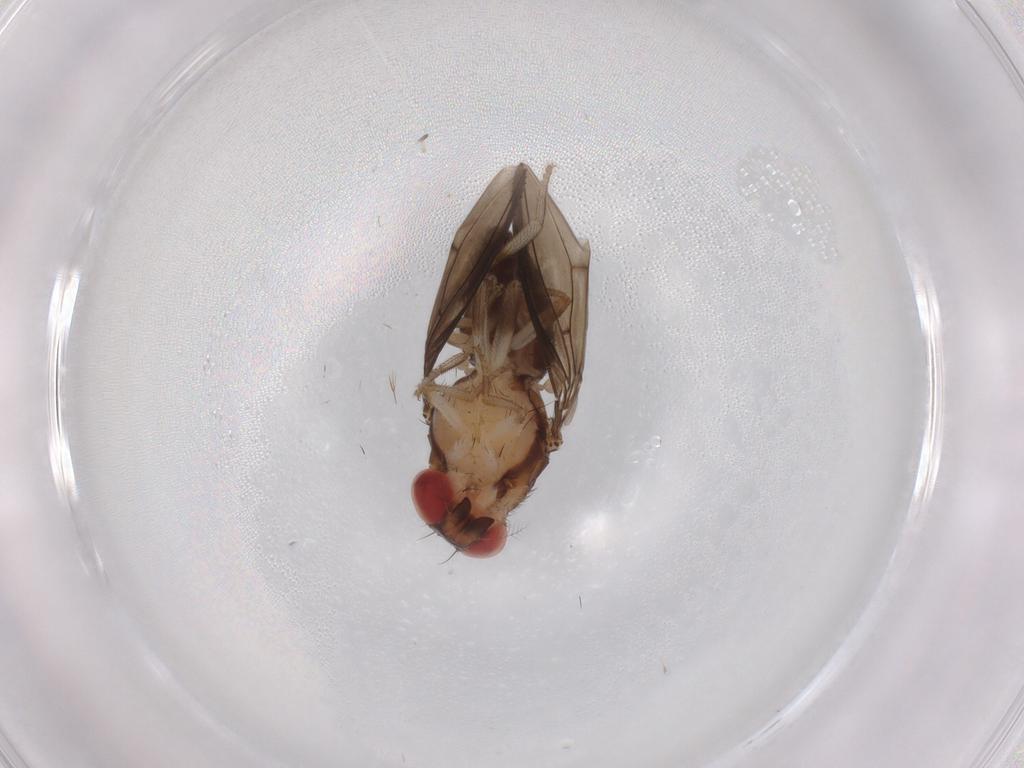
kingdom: Animalia
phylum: Arthropoda
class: Insecta
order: Diptera
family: Drosophilidae
